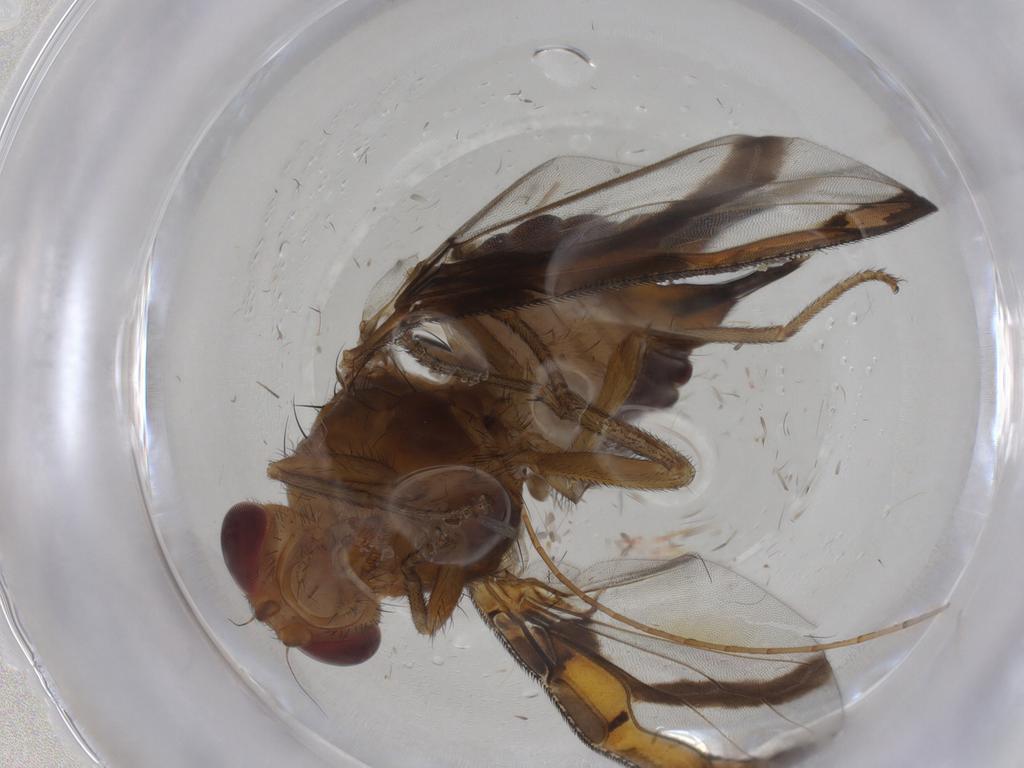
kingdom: Animalia
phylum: Arthropoda
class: Insecta
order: Diptera
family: Ulidiidae
